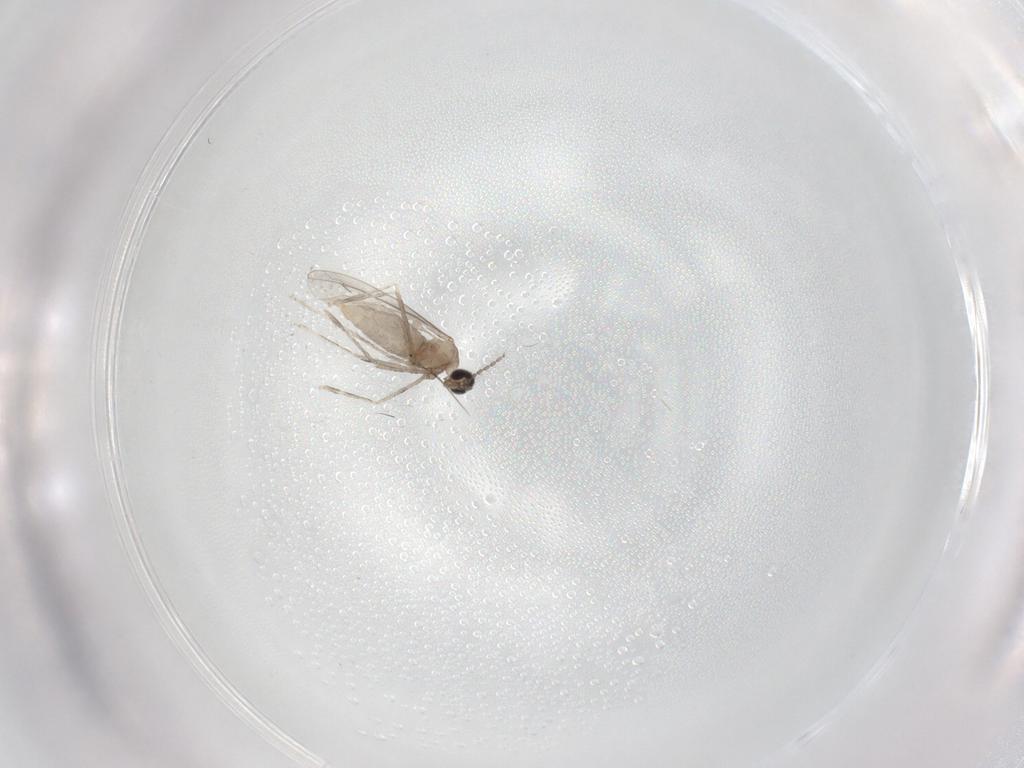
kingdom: Animalia
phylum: Arthropoda
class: Insecta
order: Diptera
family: Cecidomyiidae
